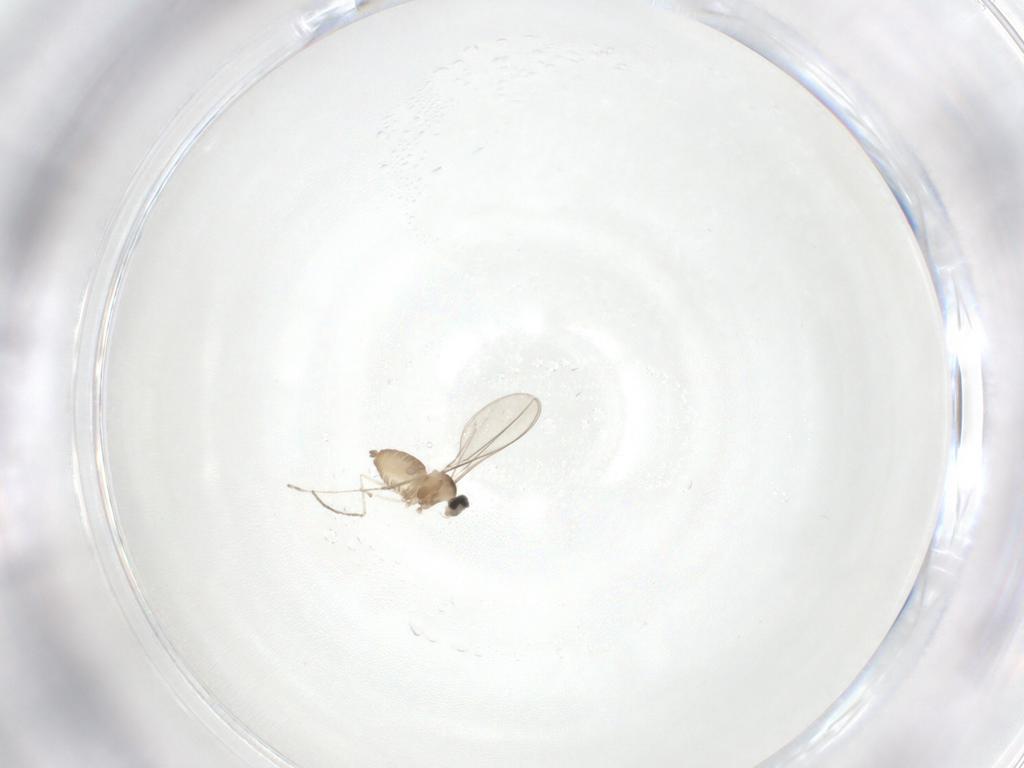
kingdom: Animalia
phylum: Arthropoda
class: Insecta
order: Diptera
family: Cecidomyiidae
